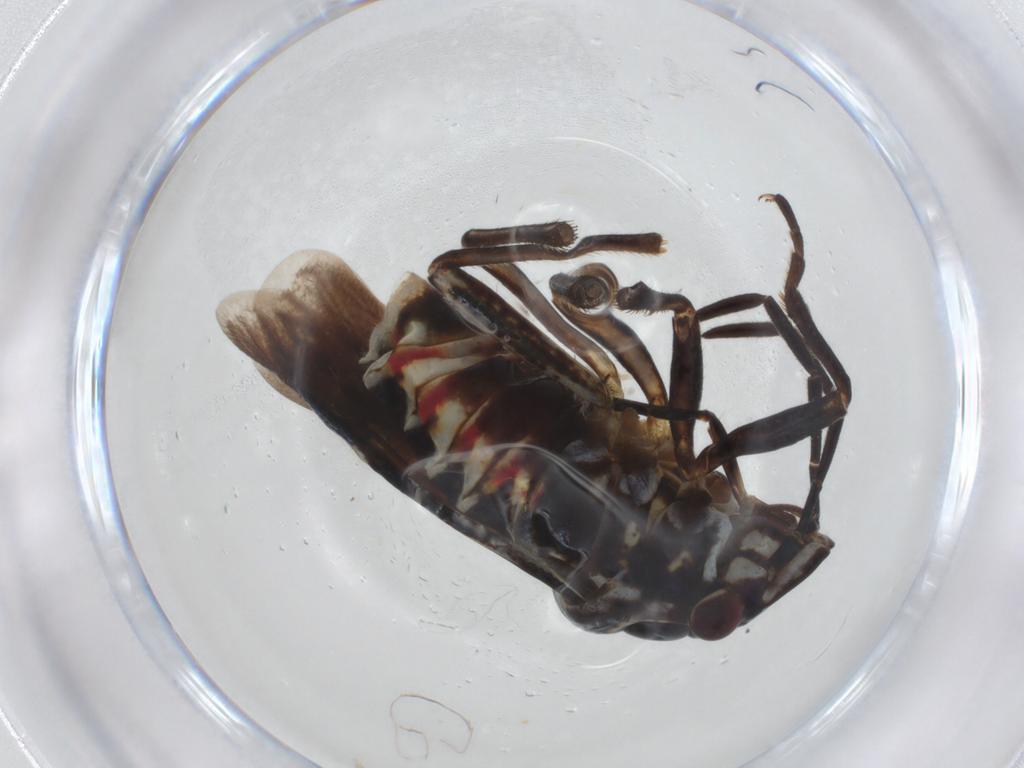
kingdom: Animalia
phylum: Arthropoda
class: Insecta
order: Hemiptera
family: Pentatomidae
